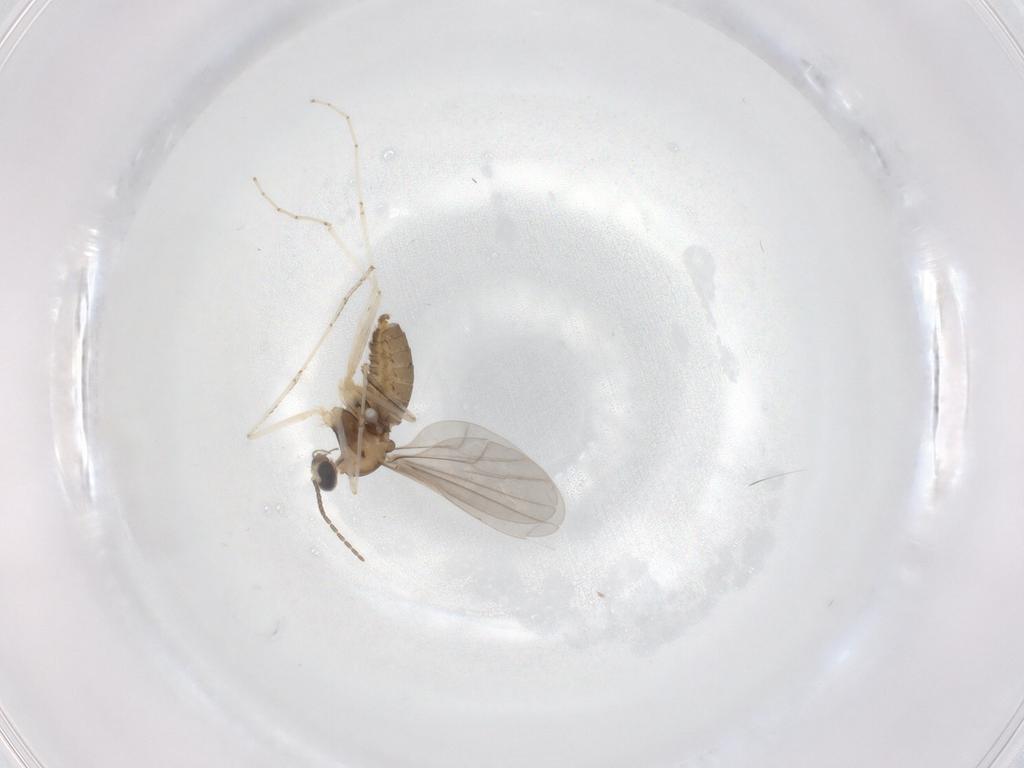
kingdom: Animalia
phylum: Arthropoda
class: Insecta
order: Diptera
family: Cecidomyiidae
